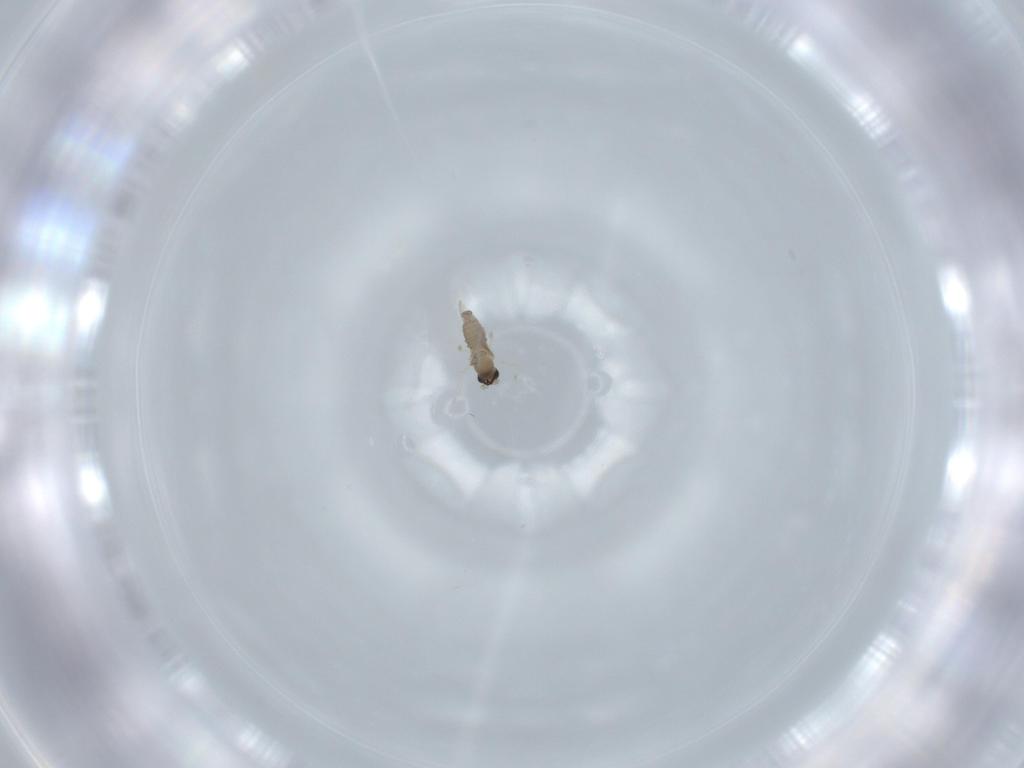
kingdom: Animalia
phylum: Arthropoda
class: Insecta
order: Diptera
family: Cecidomyiidae
